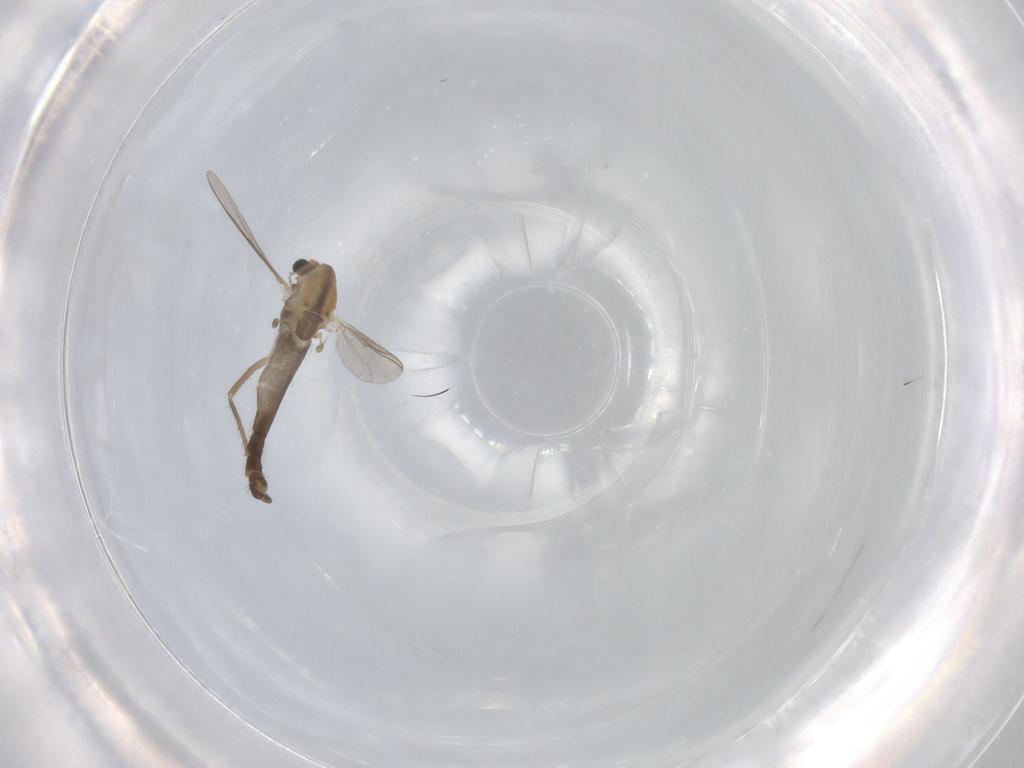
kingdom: Animalia
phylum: Arthropoda
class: Insecta
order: Diptera
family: Chironomidae
